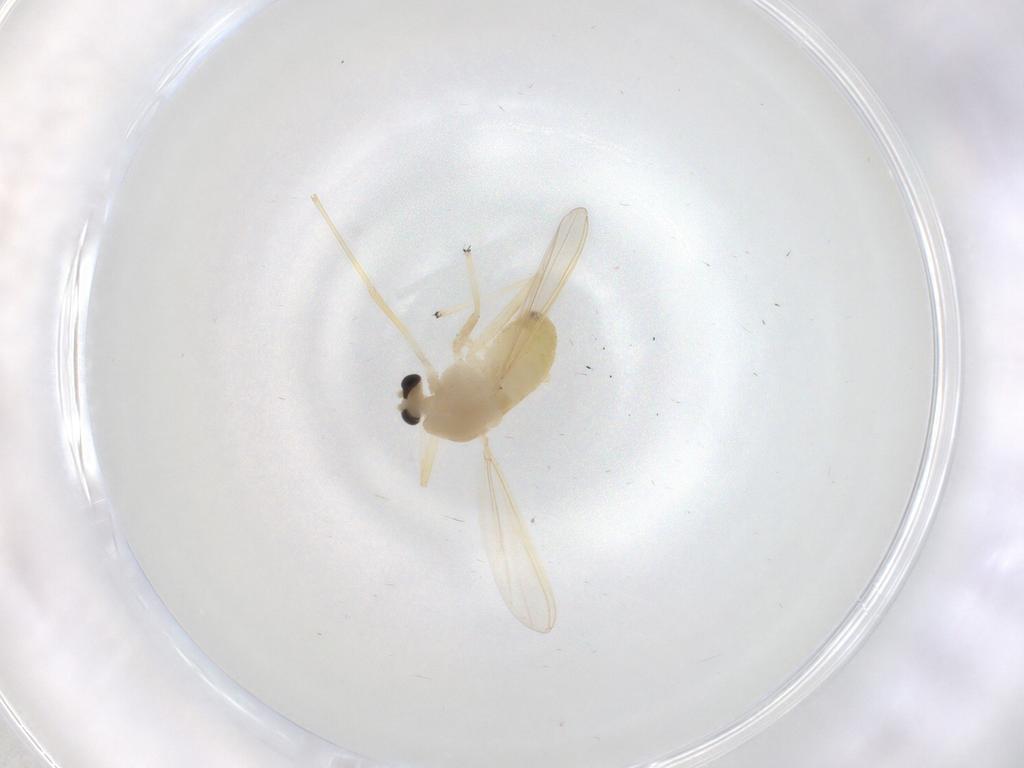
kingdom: Animalia
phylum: Arthropoda
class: Insecta
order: Diptera
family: Chironomidae
